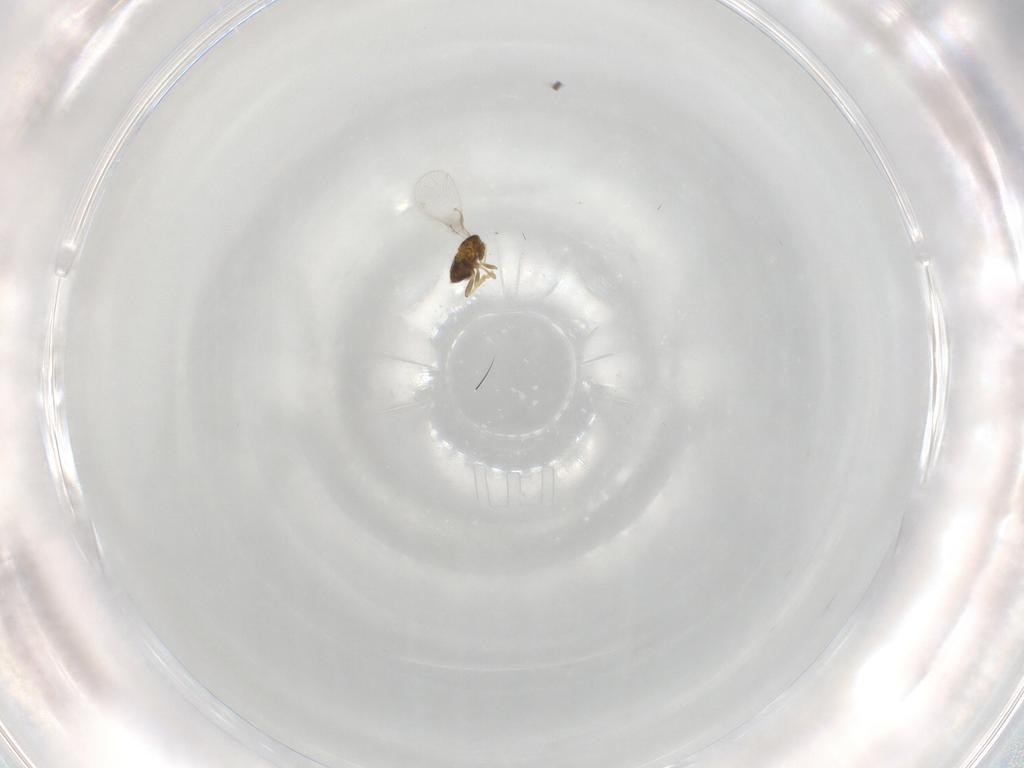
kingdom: Animalia
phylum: Arthropoda
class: Insecta
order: Hymenoptera
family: Trichogrammatidae
